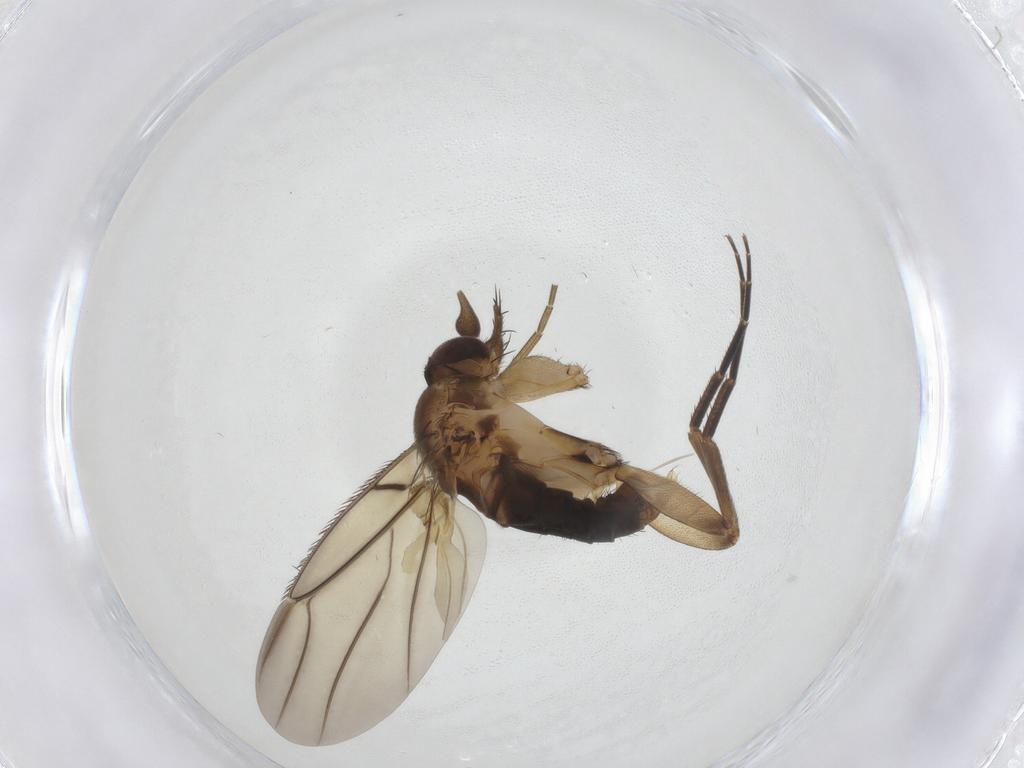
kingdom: Animalia
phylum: Arthropoda
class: Insecta
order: Diptera
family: Phoridae
